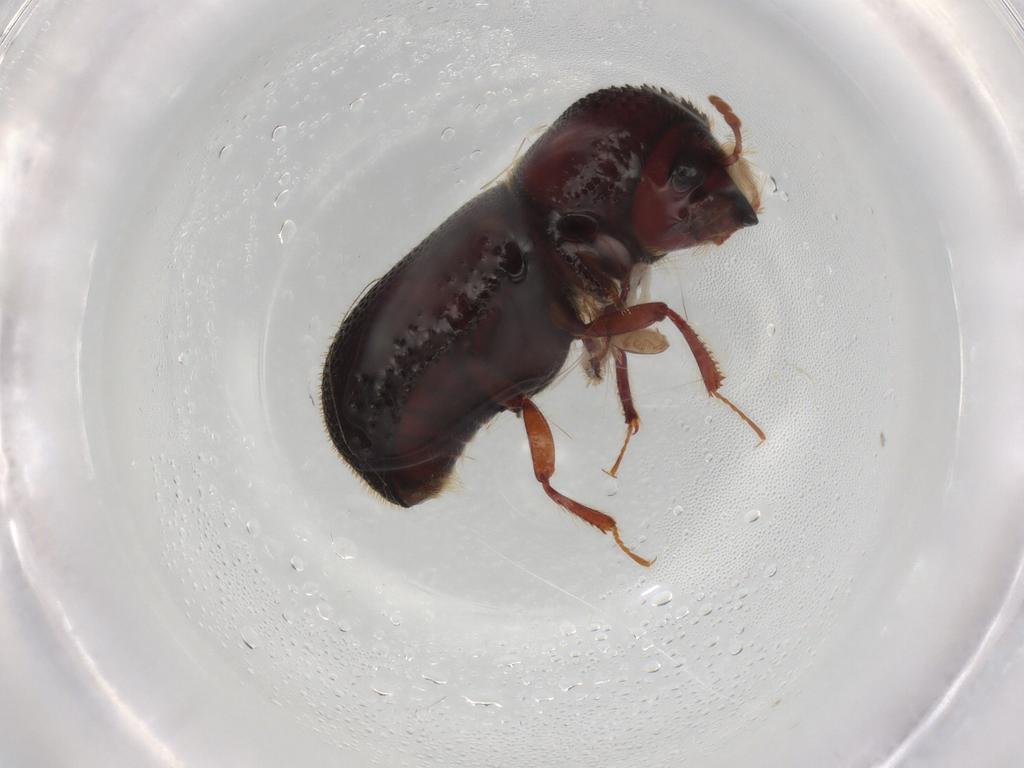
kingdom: Animalia
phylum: Arthropoda
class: Insecta
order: Coleoptera
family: Bostrichidae
